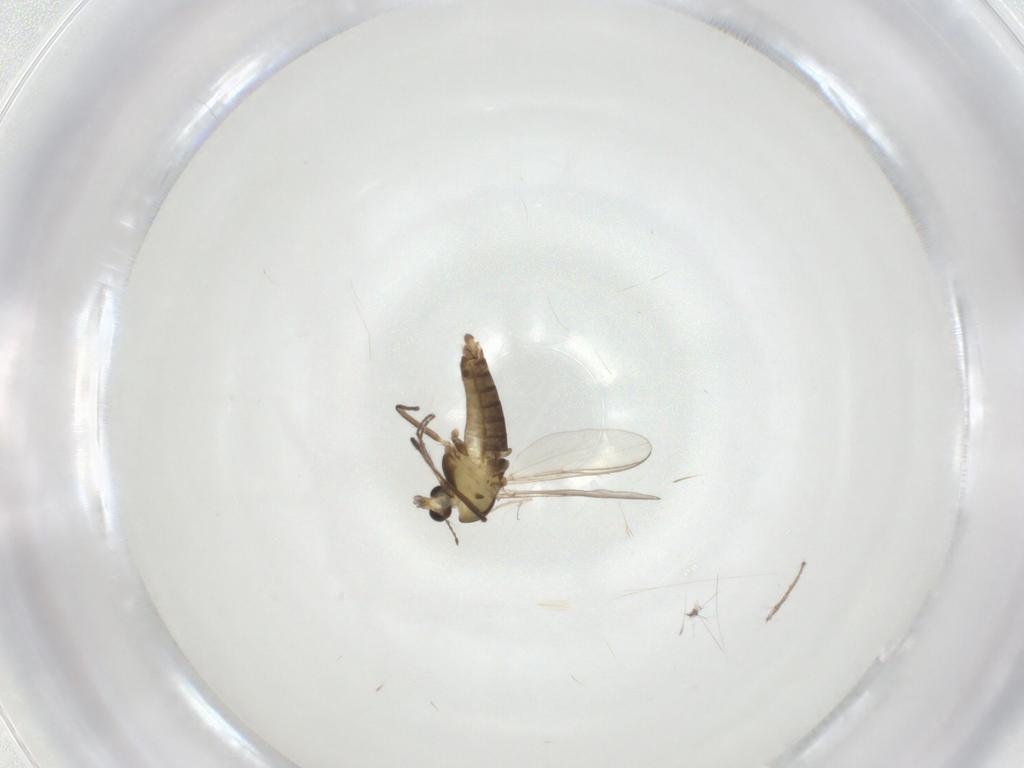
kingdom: Animalia
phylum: Arthropoda
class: Insecta
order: Diptera
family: Chironomidae
